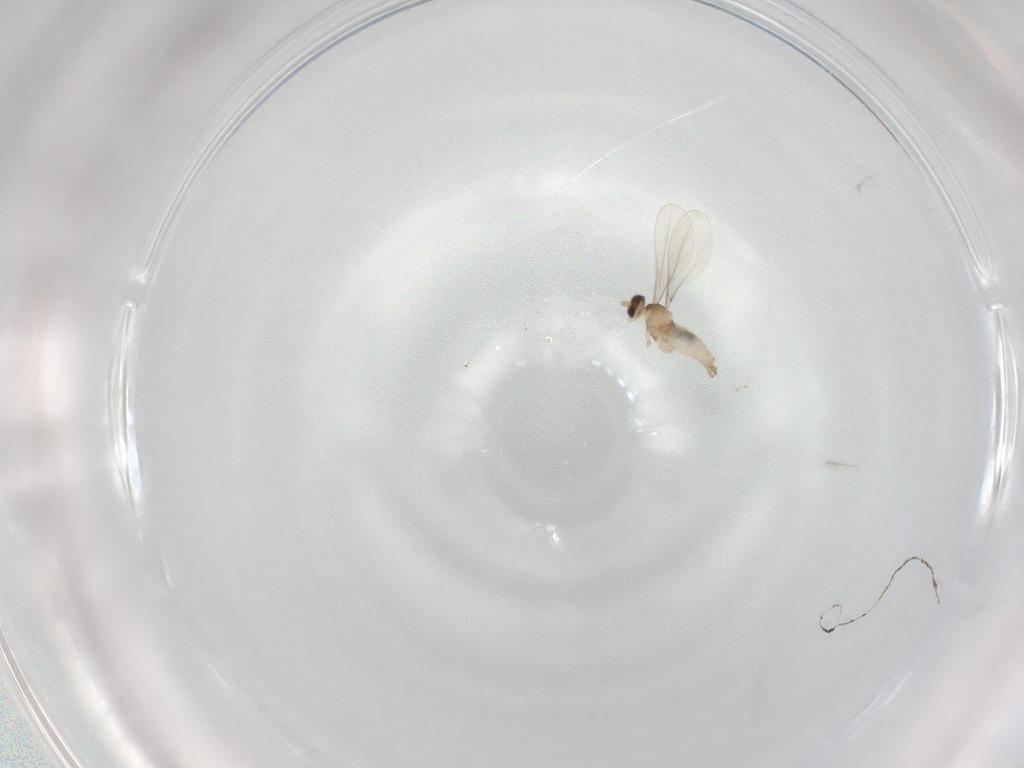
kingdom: Animalia
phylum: Arthropoda
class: Insecta
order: Diptera
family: Cecidomyiidae
